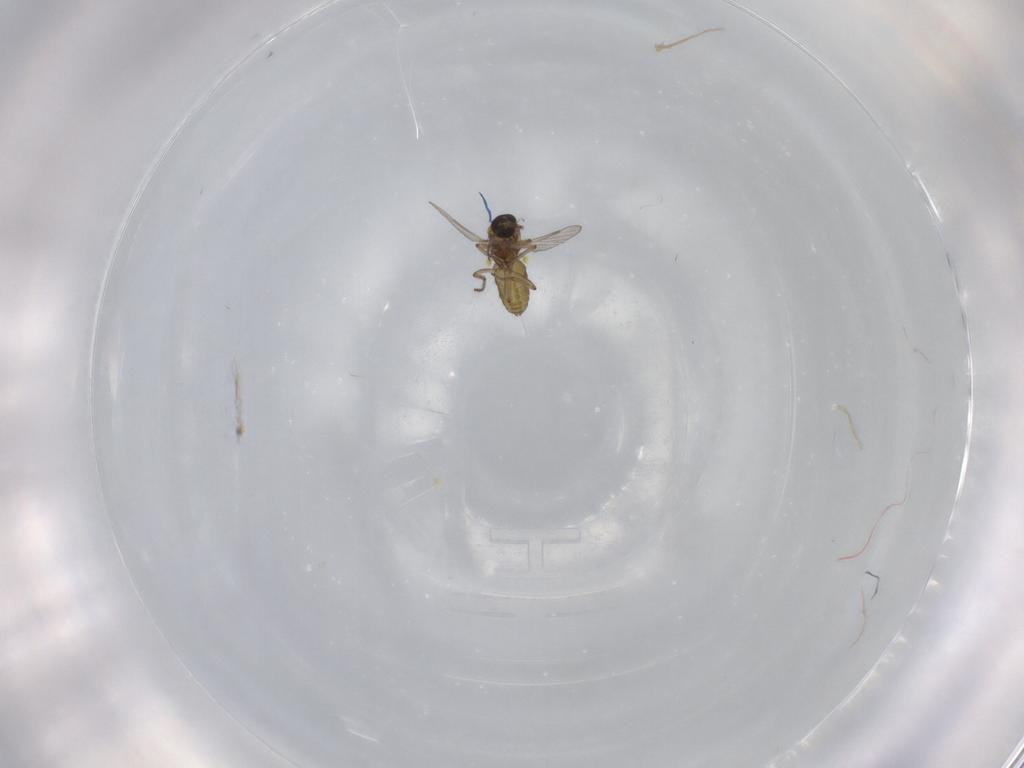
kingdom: Animalia
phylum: Arthropoda
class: Insecta
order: Diptera
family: Ceratopogonidae
